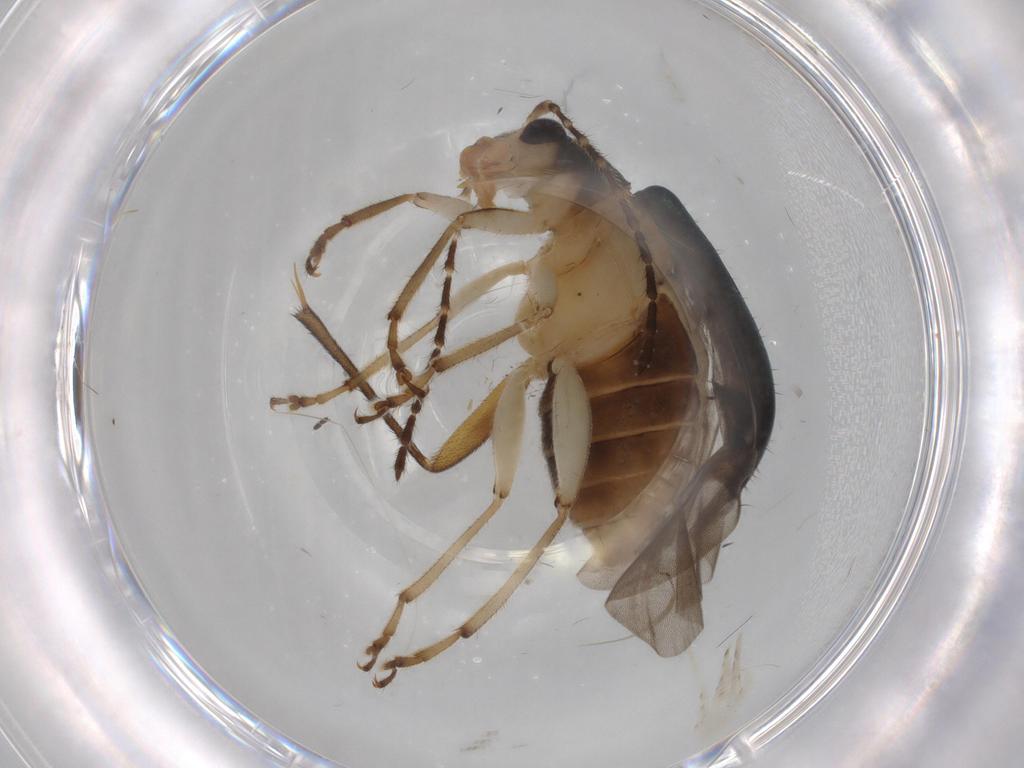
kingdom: Animalia
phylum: Arthropoda
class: Insecta
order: Coleoptera
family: Chrysomelidae
